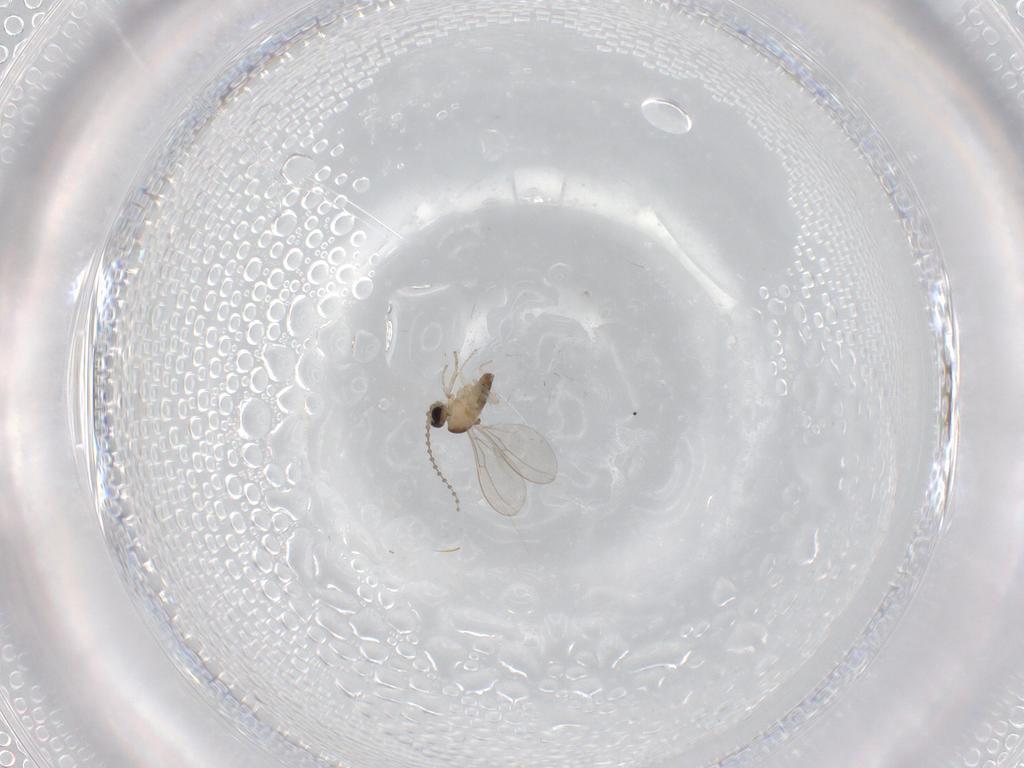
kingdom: Animalia
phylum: Arthropoda
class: Insecta
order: Diptera
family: Cecidomyiidae
